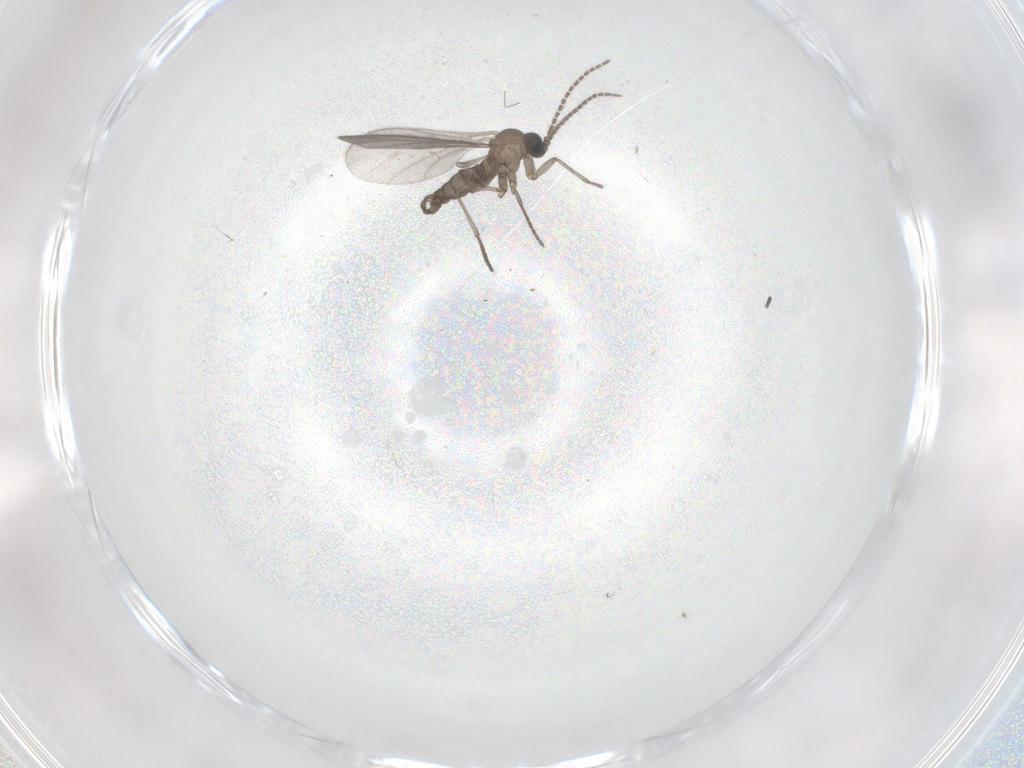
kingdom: Animalia
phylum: Arthropoda
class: Insecta
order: Diptera
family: Sciaridae
